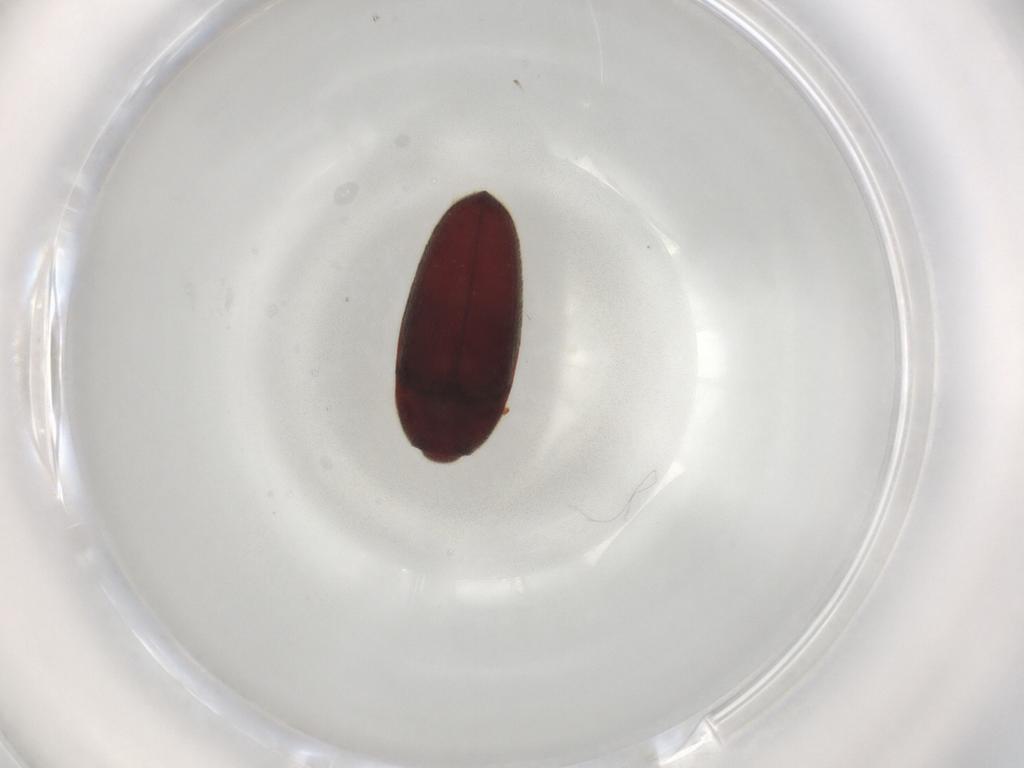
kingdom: Animalia
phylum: Arthropoda
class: Insecta
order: Coleoptera
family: Throscidae
